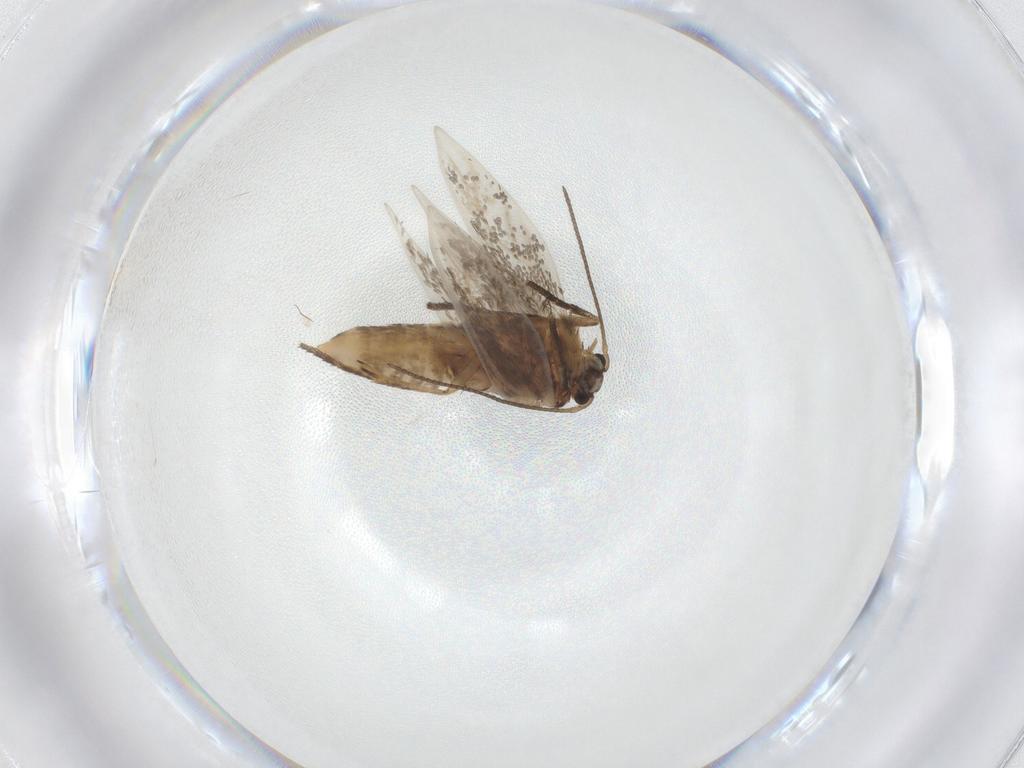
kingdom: Animalia
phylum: Arthropoda
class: Insecta
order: Lepidoptera
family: Nepticulidae
